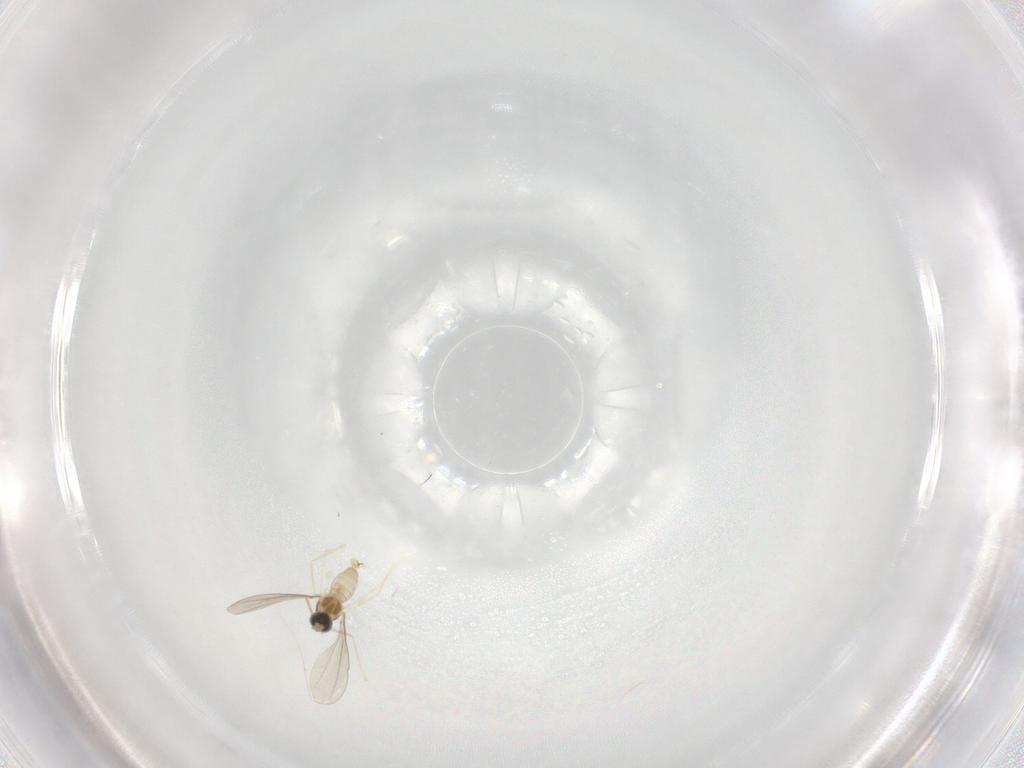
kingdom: Animalia
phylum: Arthropoda
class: Insecta
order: Diptera
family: Cecidomyiidae
